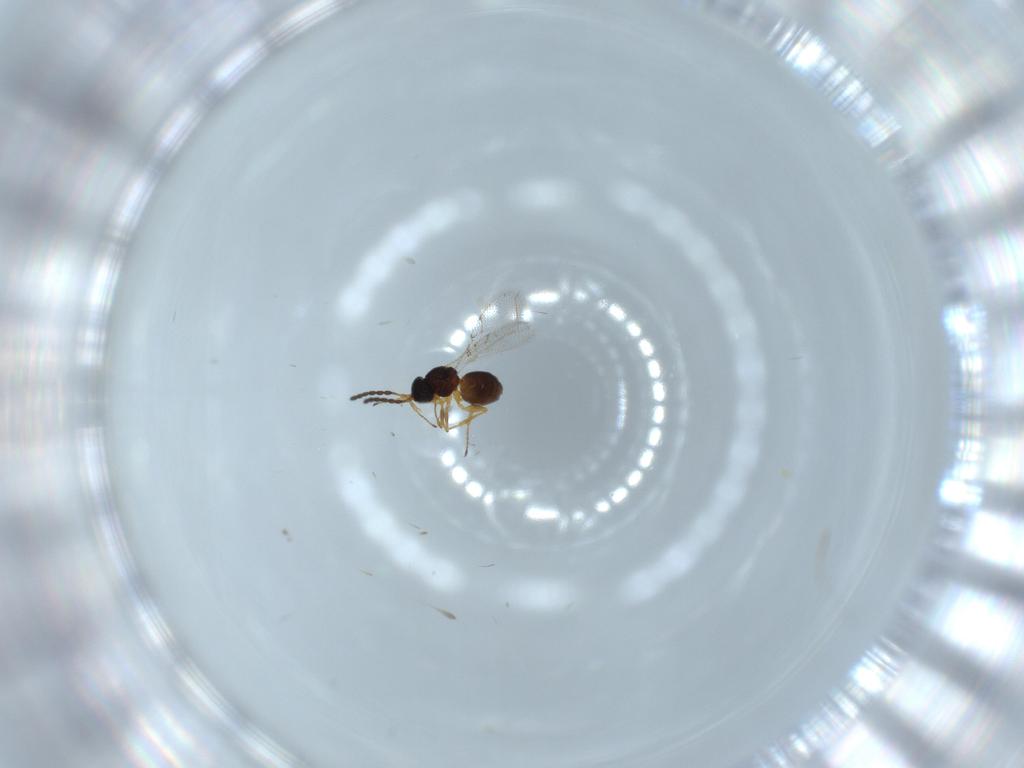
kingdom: Animalia
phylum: Arthropoda
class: Insecta
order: Hymenoptera
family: Figitidae
